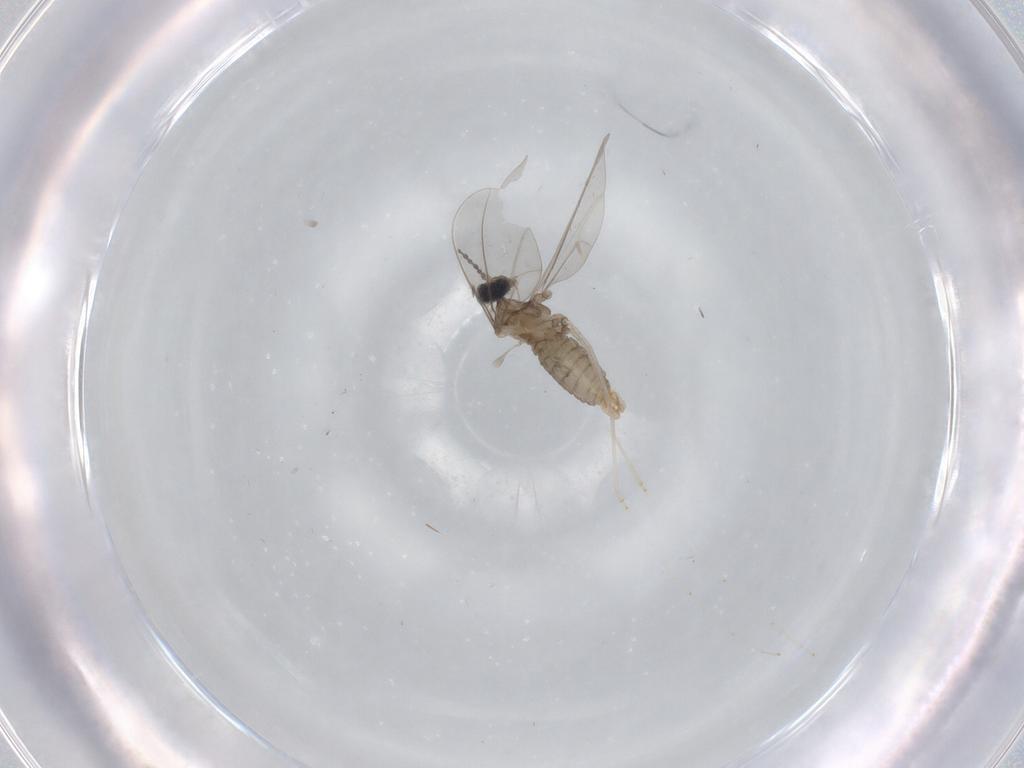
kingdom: Animalia
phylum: Arthropoda
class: Insecta
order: Diptera
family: Cecidomyiidae
